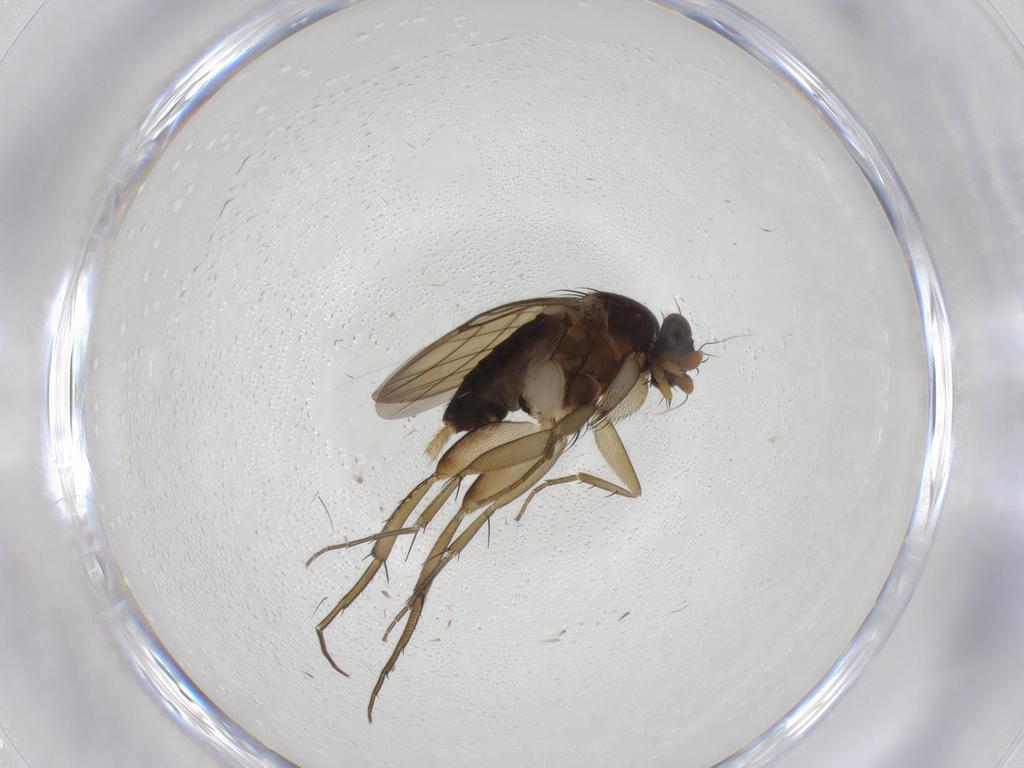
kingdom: Animalia
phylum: Arthropoda
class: Insecta
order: Diptera
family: Phoridae
